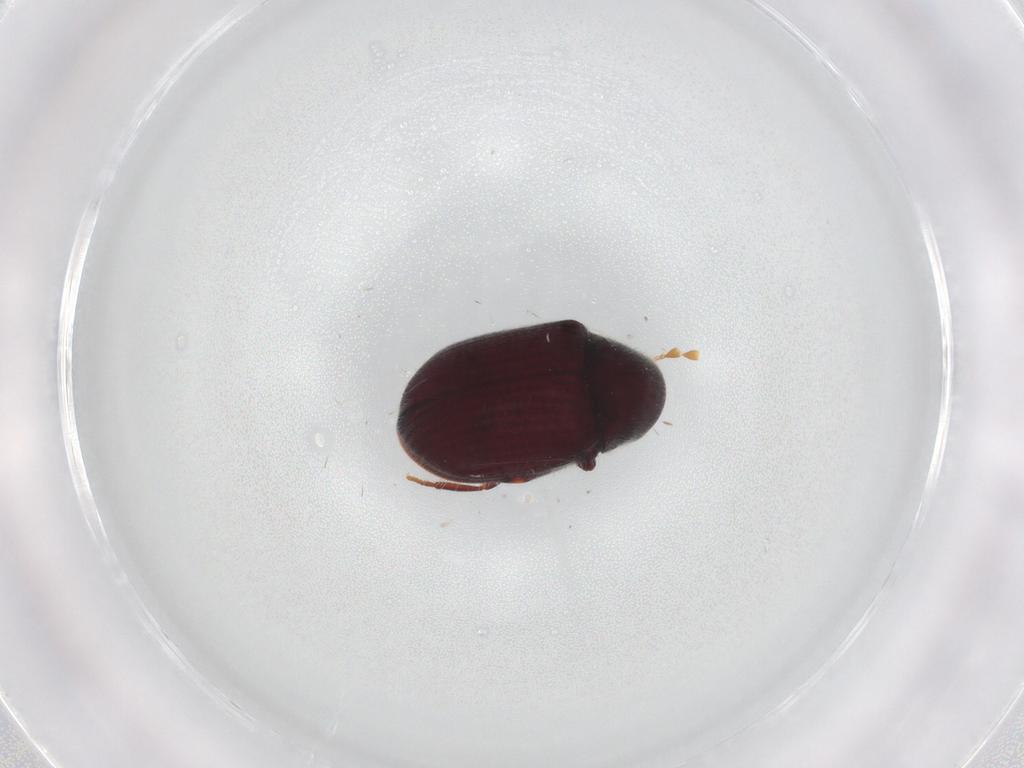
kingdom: Animalia
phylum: Arthropoda
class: Insecta
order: Coleoptera
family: Ptinidae
